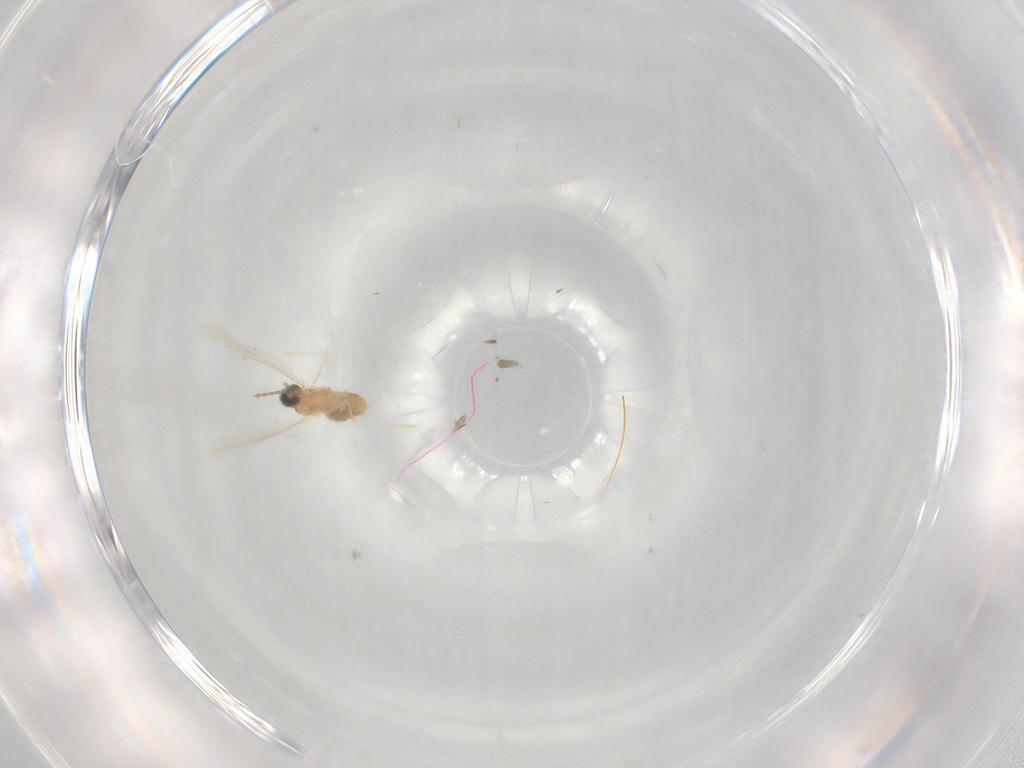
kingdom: Animalia
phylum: Arthropoda
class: Insecta
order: Diptera
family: Cecidomyiidae
